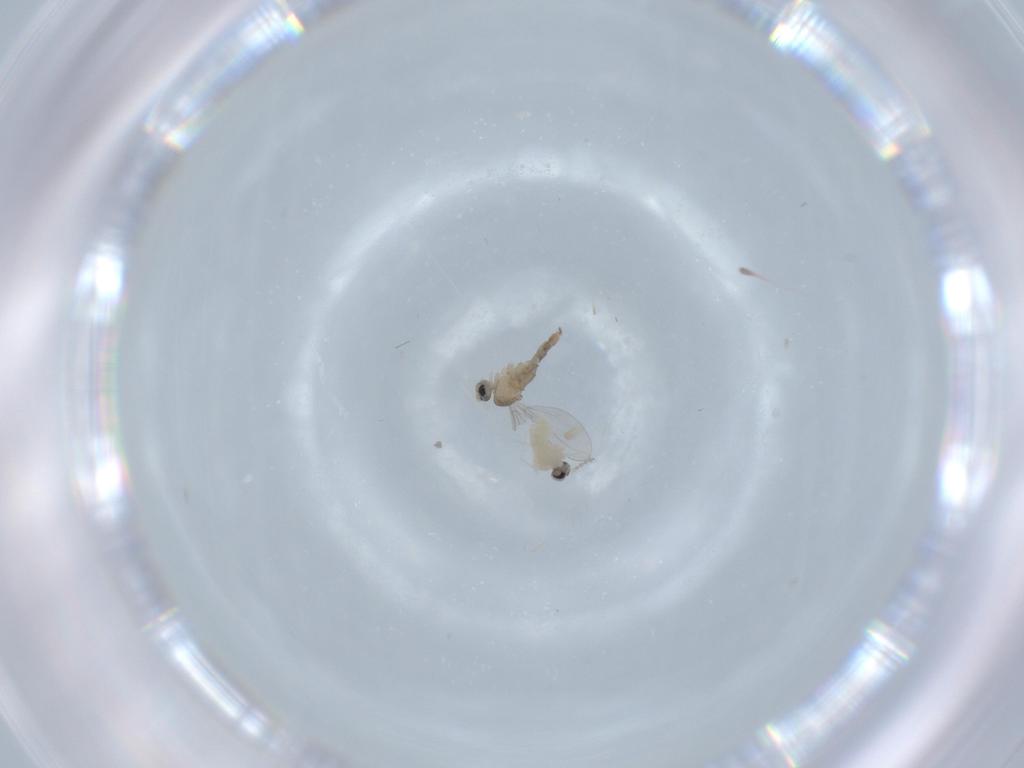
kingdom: Animalia
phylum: Arthropoda
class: Insecta
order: Diptera
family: Cecidomyiidae
